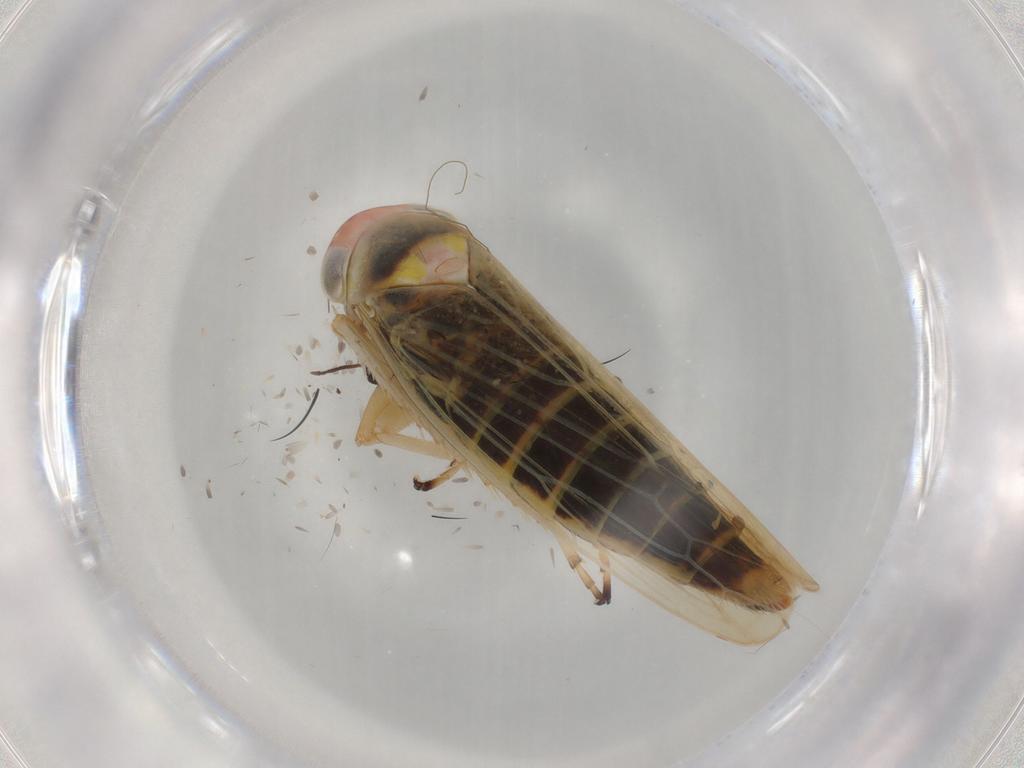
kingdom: Animalia
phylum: Arthropoda
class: Insecta
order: Hemiptera
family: Cicadellidae
